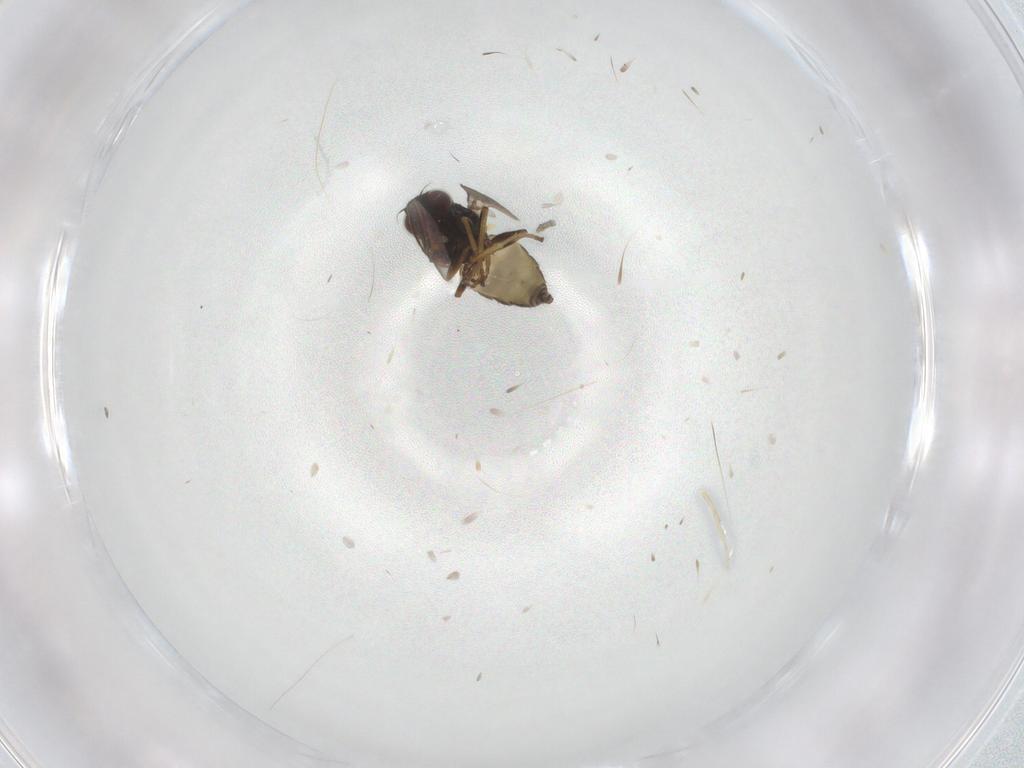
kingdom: Animalia
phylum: Arthropoda
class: Insecta
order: Diptera
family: Chloropidae
